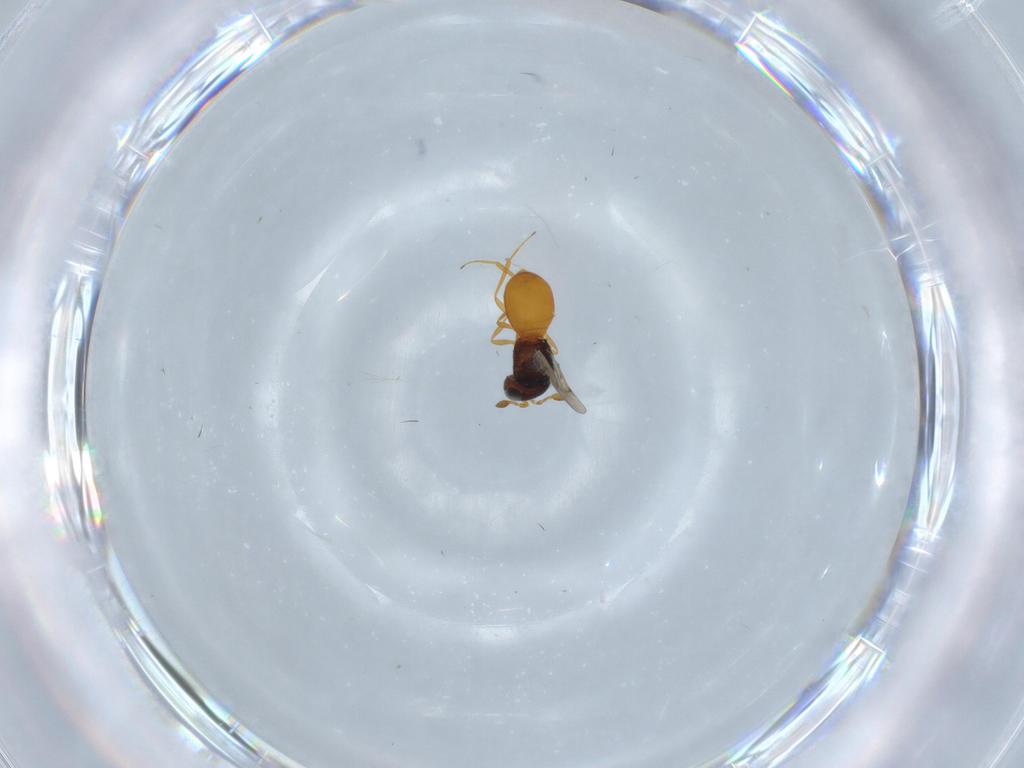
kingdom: Animalia
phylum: Arthropoda
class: Insecta
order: Hymenoptera
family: Scelionidae
